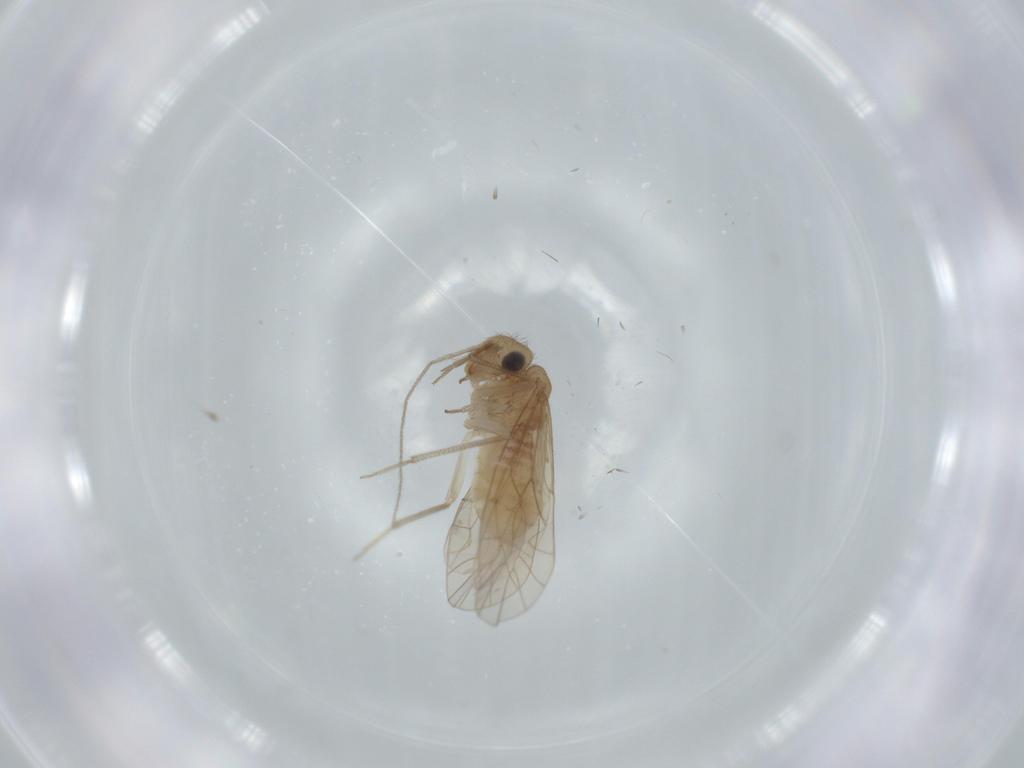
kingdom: Animalia
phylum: Arthropoda
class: Insecta
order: Psocodea
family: Caeciliusidae
